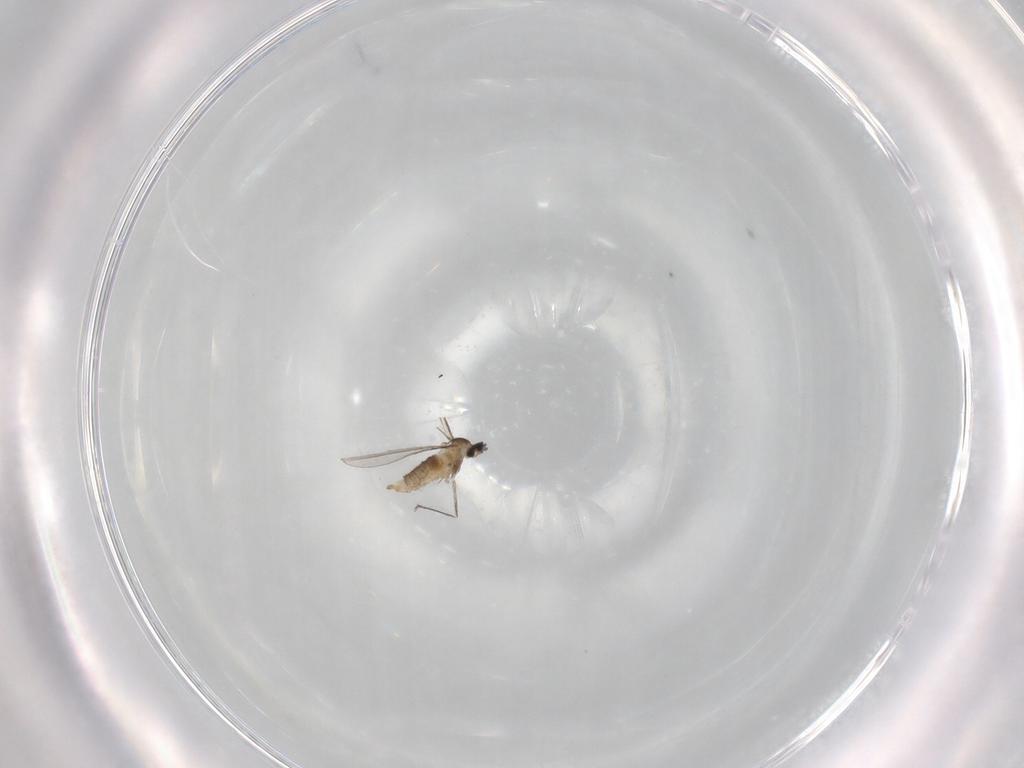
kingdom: Animalia
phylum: Arthropoda
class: Insecta
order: Diptera
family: Cecidomyiidae
